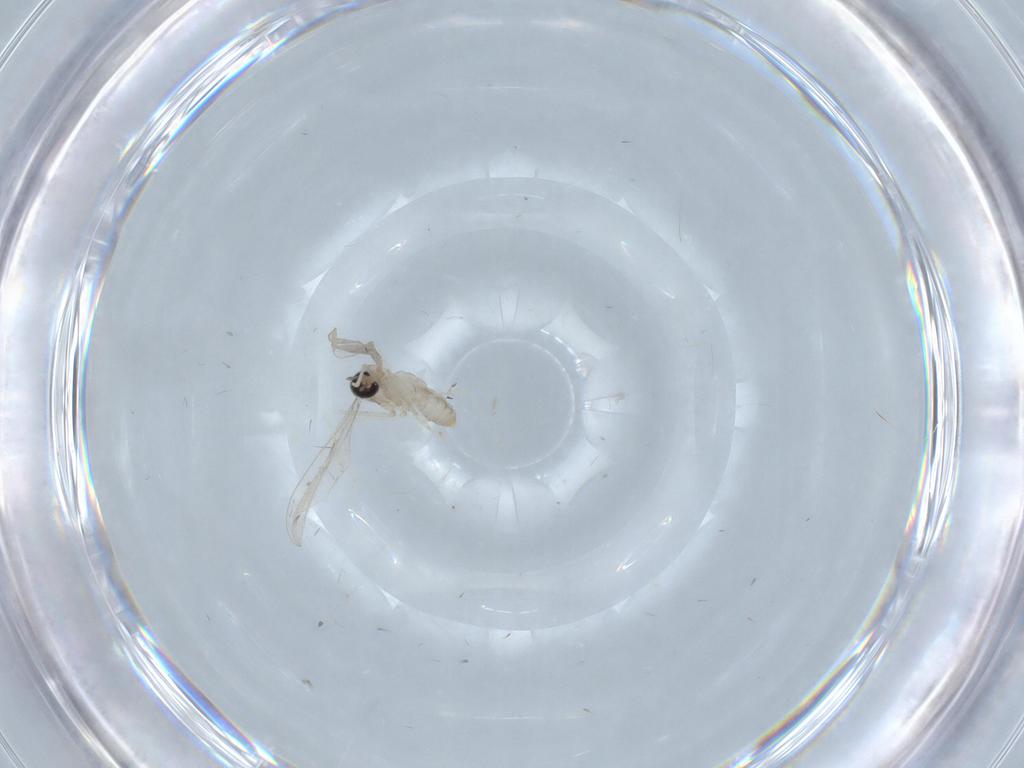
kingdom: Animalia
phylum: Arthropoda
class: Insecta
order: Diptera
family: Cecidomyiidae
